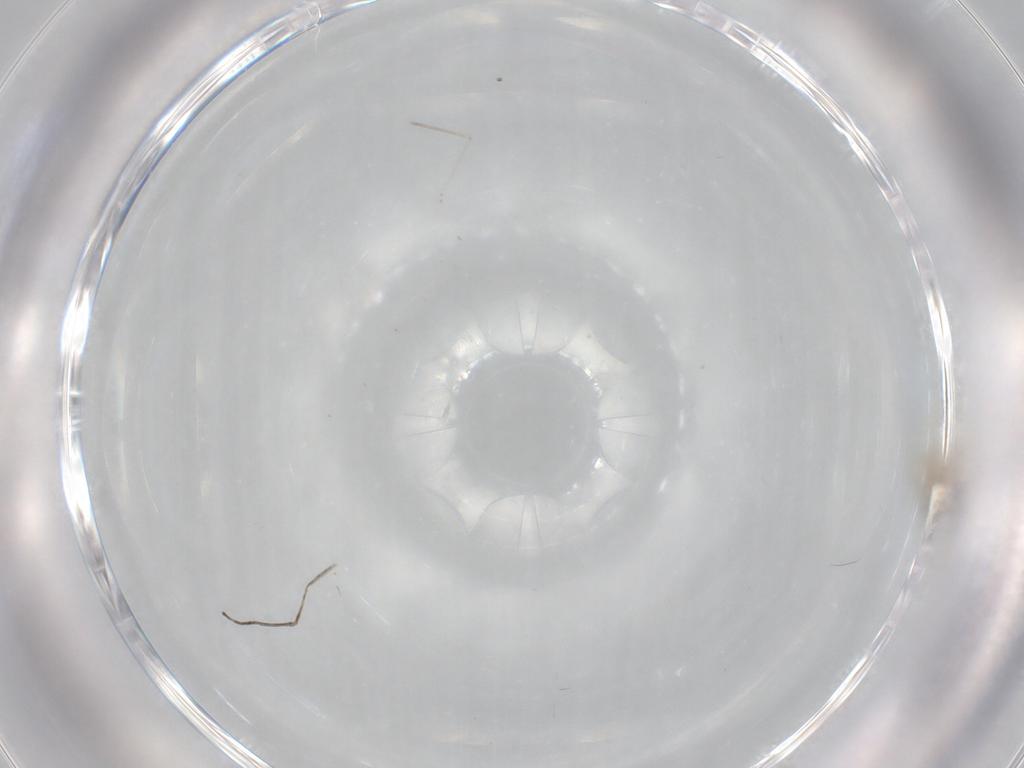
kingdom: Animalia
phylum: Arthropoda
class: Insecta
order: Diptera
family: Cecidomyiidae
